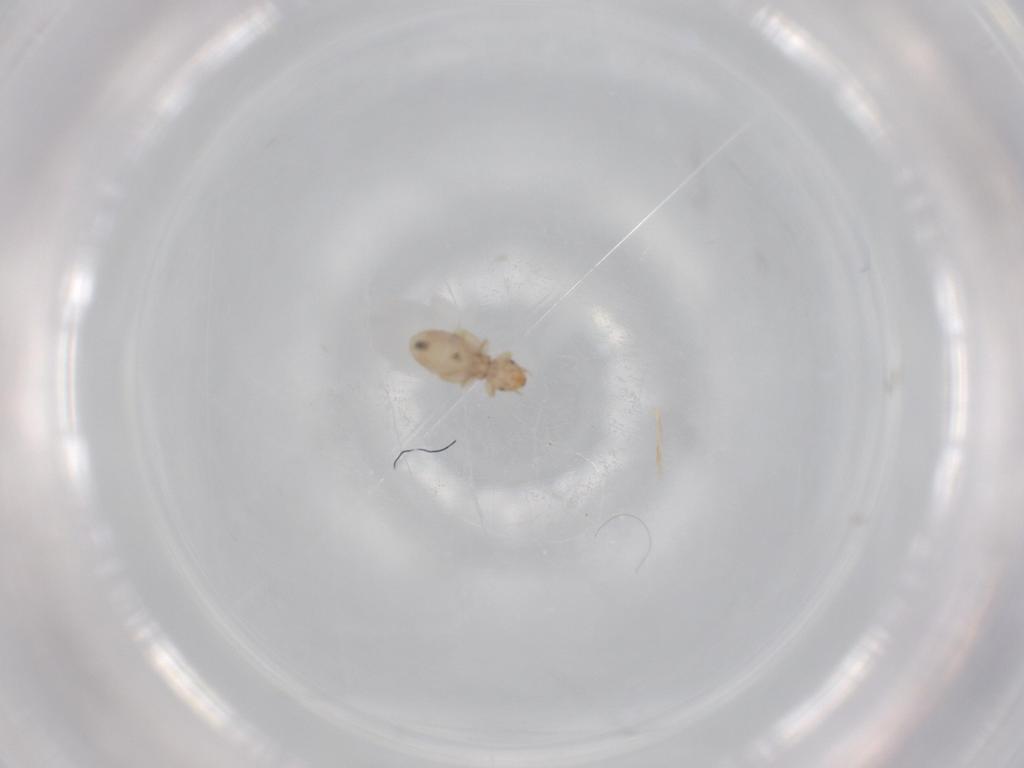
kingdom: Animalia
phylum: Arthropoda
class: Insecta
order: Psocodea
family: Liposcelididae
